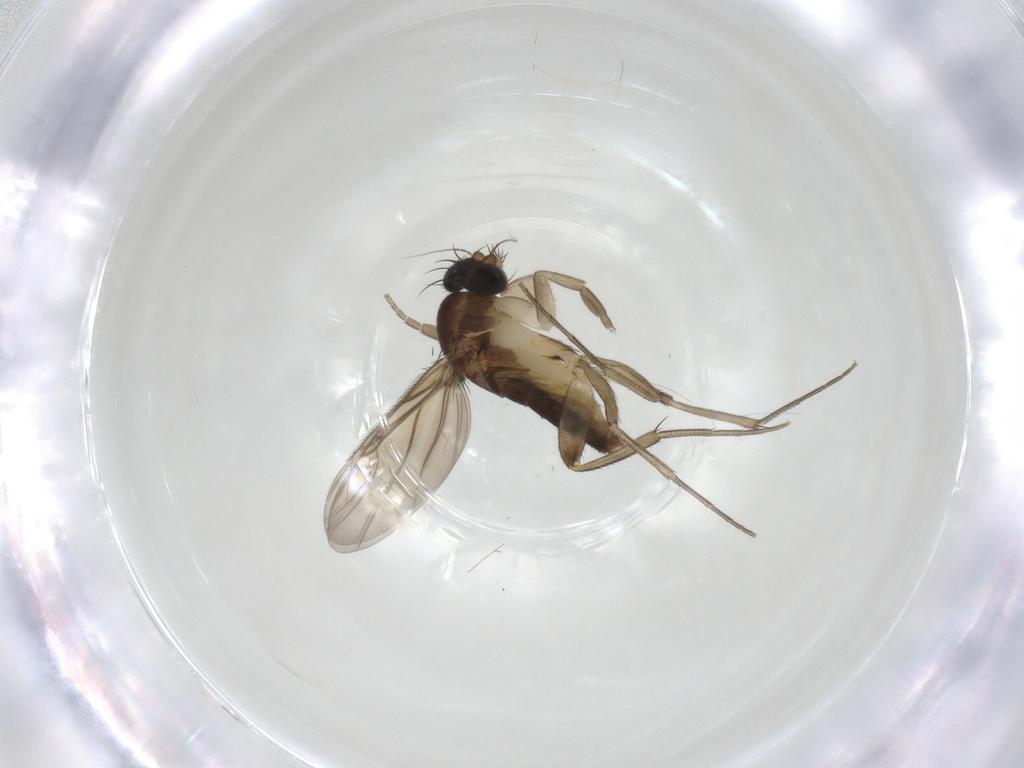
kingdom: Animalia
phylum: Arthropoda
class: Insecta
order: Diptera
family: Phoridae
